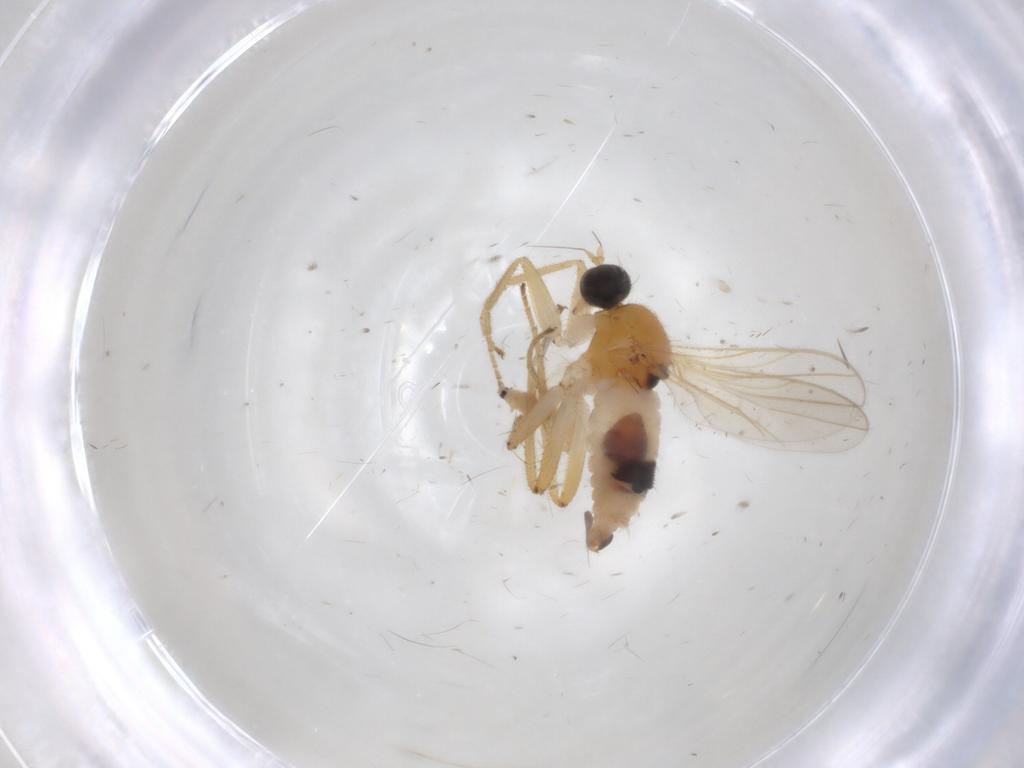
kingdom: Animalia
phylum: Arthropoda
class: Insecta
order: Diptera
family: Hybotidae
